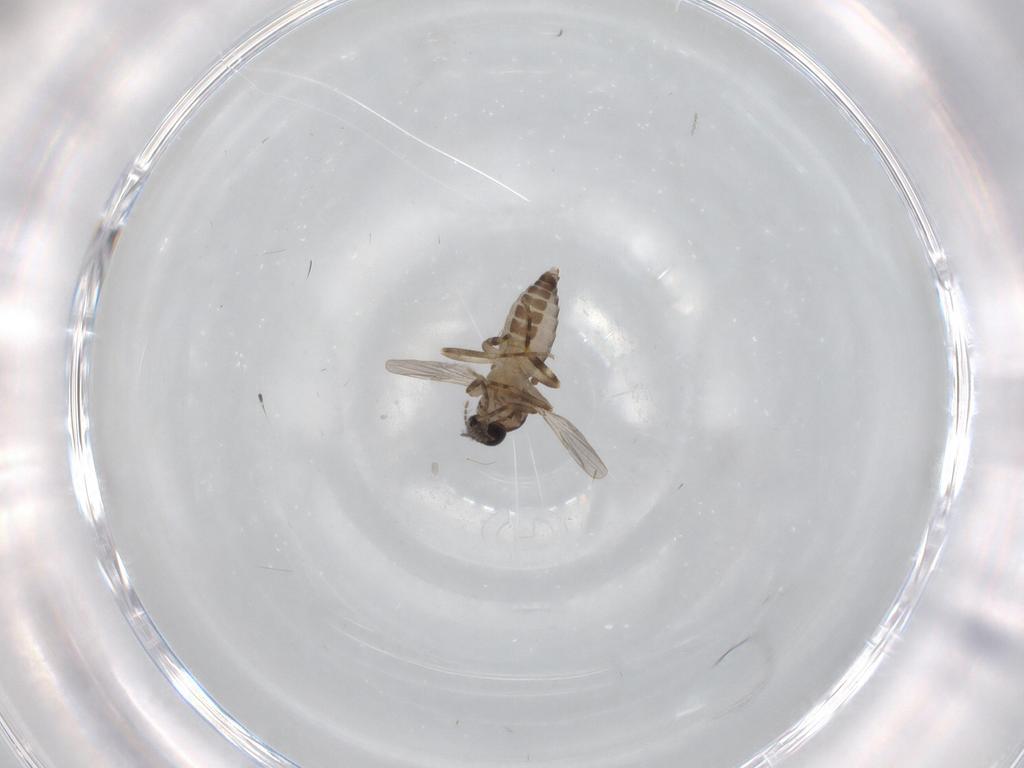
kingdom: Animalia
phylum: Arthropoda
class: Insecta
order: Diptera
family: Ceratopogonidae
